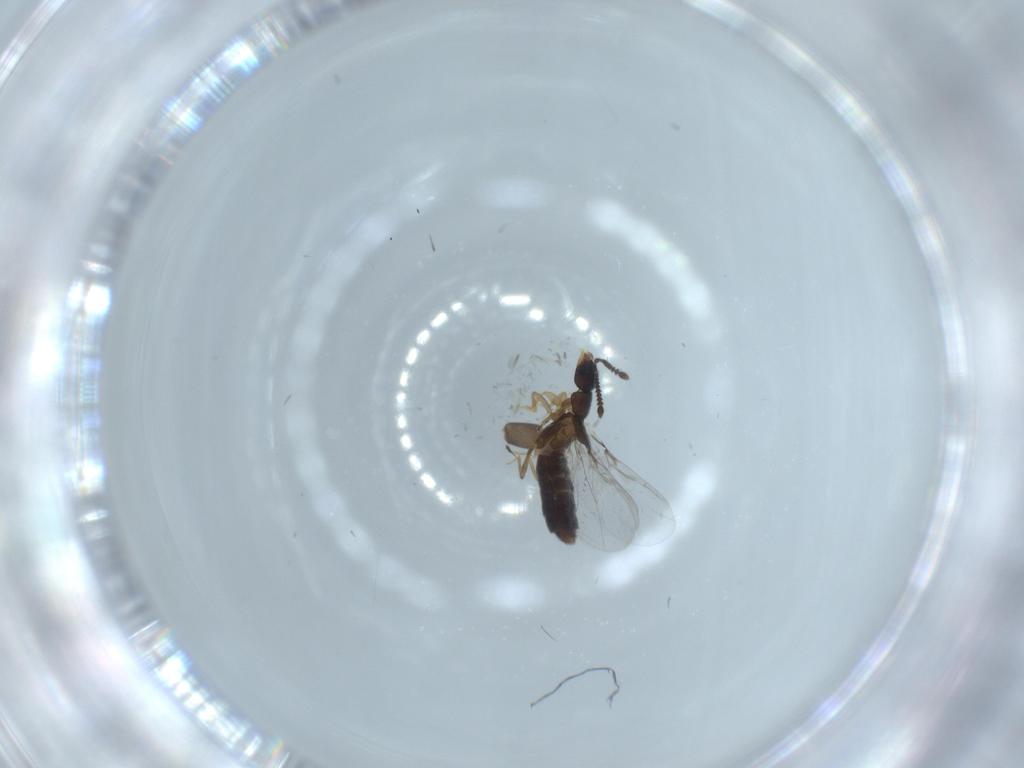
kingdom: Animalia
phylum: Arthropoda
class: Insecta
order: Coleoptera
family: Staphylinidae
